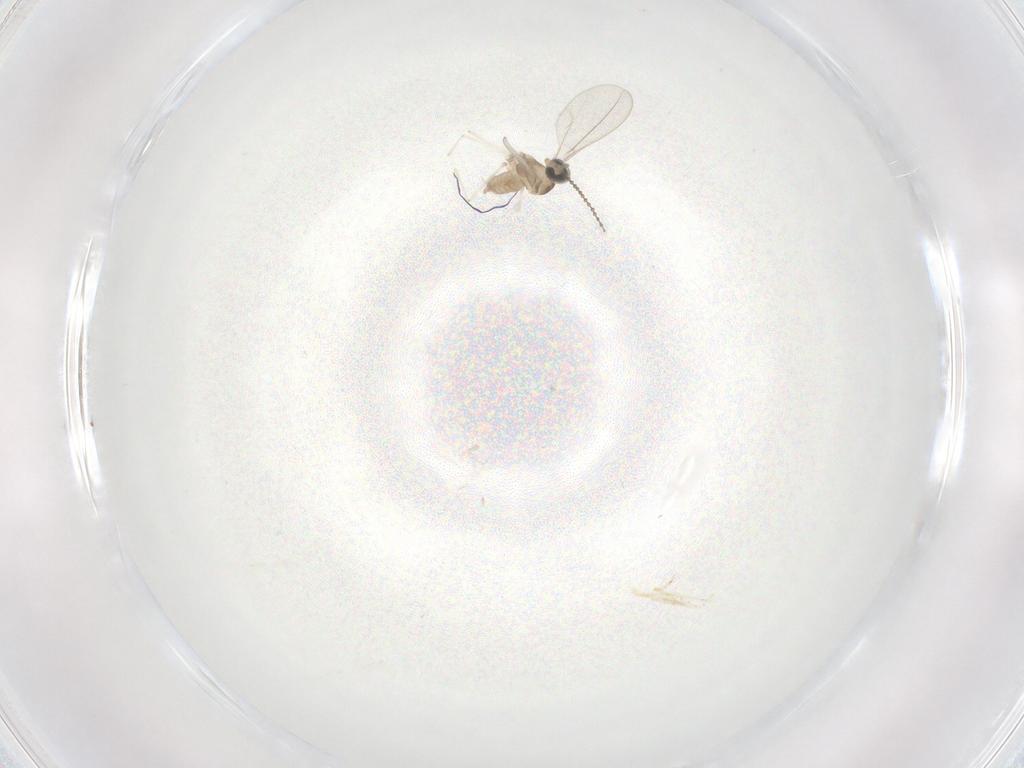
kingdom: Animalia
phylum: Arthropoda
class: Insecta
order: Diptera
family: Cecidomyiidae
